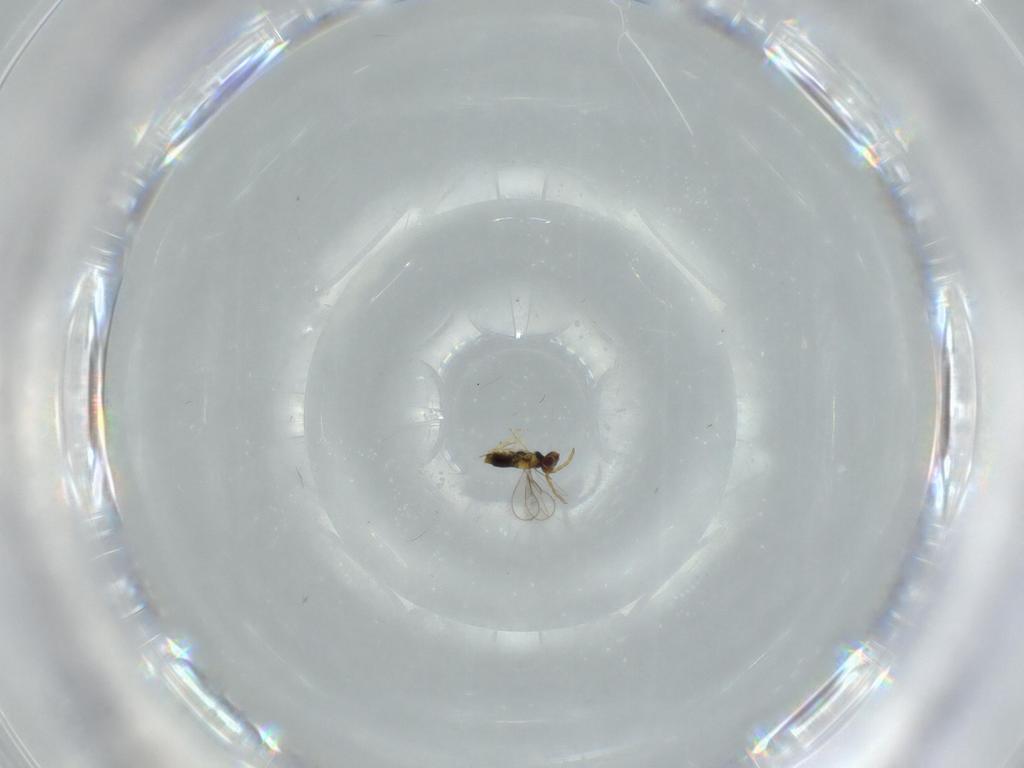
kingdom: Animalia
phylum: Arthropoda
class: Insecta
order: Hymenoptera
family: Aphelinidae
